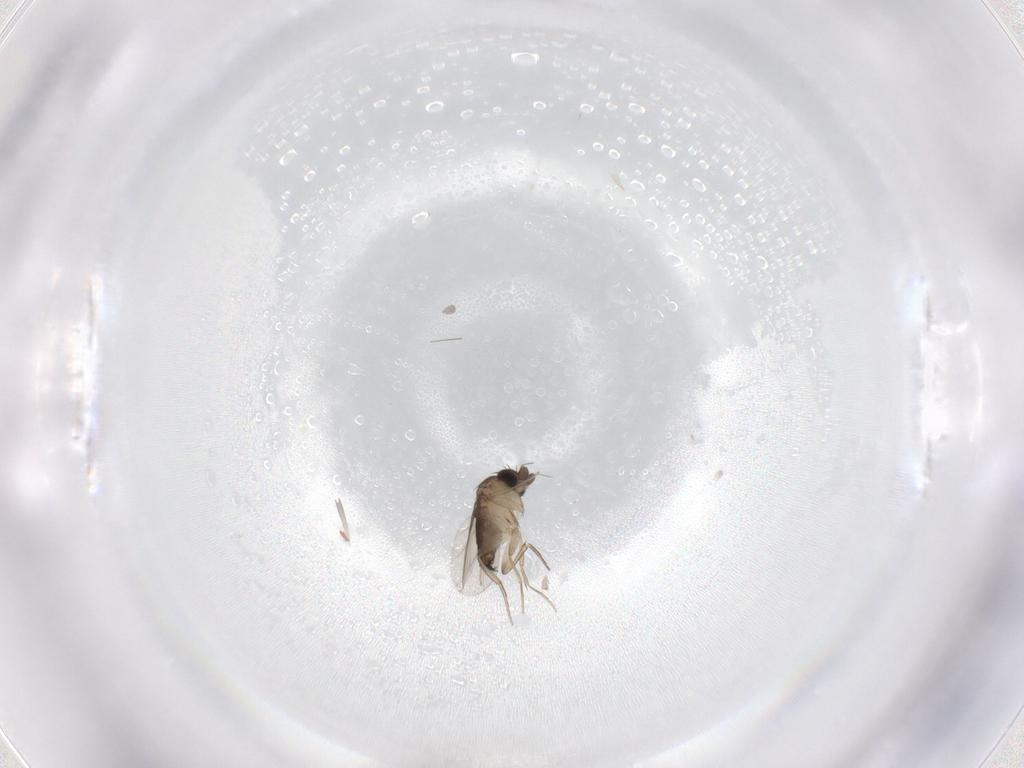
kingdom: Animalia
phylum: Arthropoda
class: Insecta
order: Diptera
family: Phoridae
